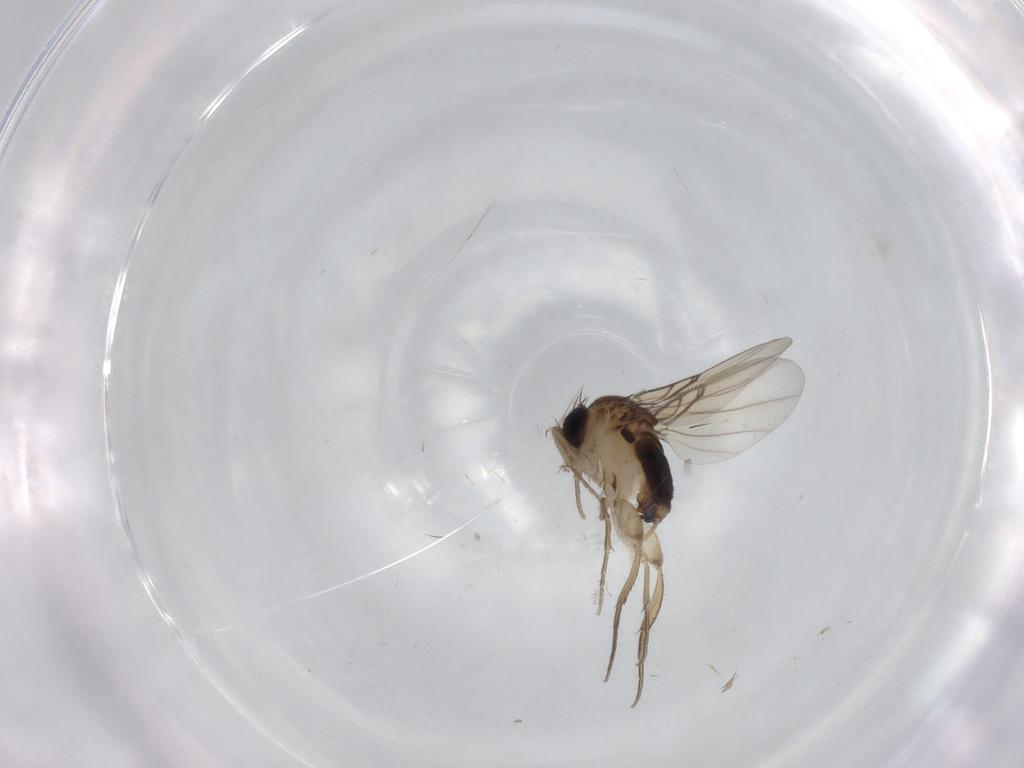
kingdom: Animalia
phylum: Arthropoda
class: Insecta
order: Diptera
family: Phoridae
